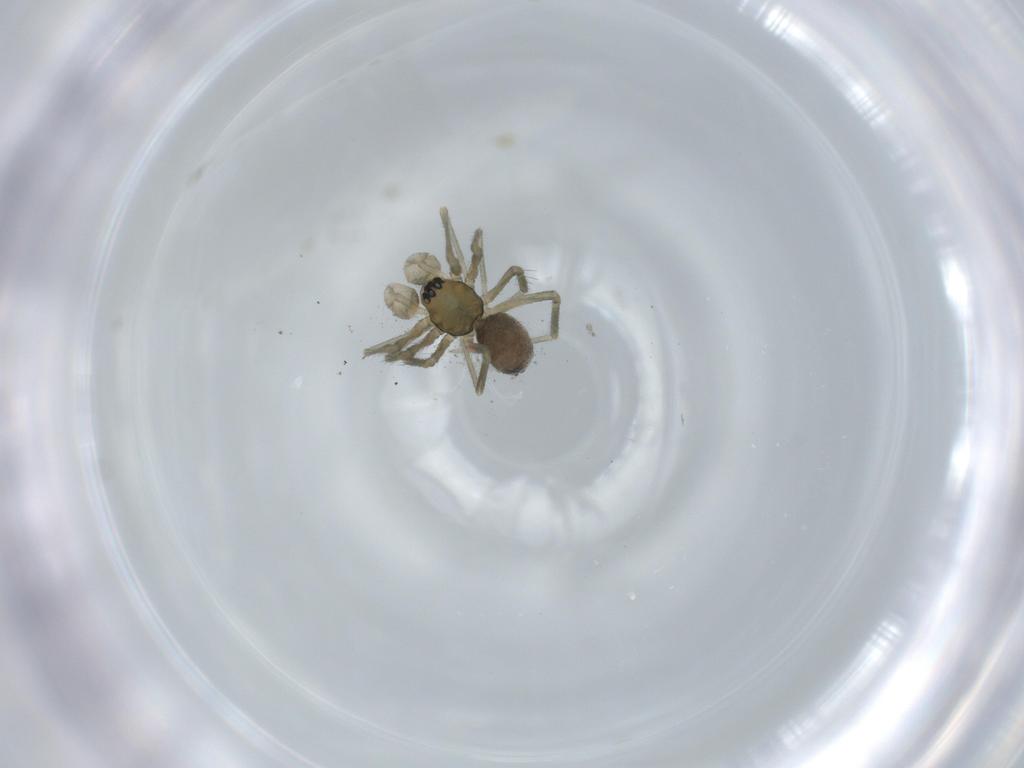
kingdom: Animalia
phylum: Arthropoda
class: Arachnida
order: Araneae
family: Linyphiidae
